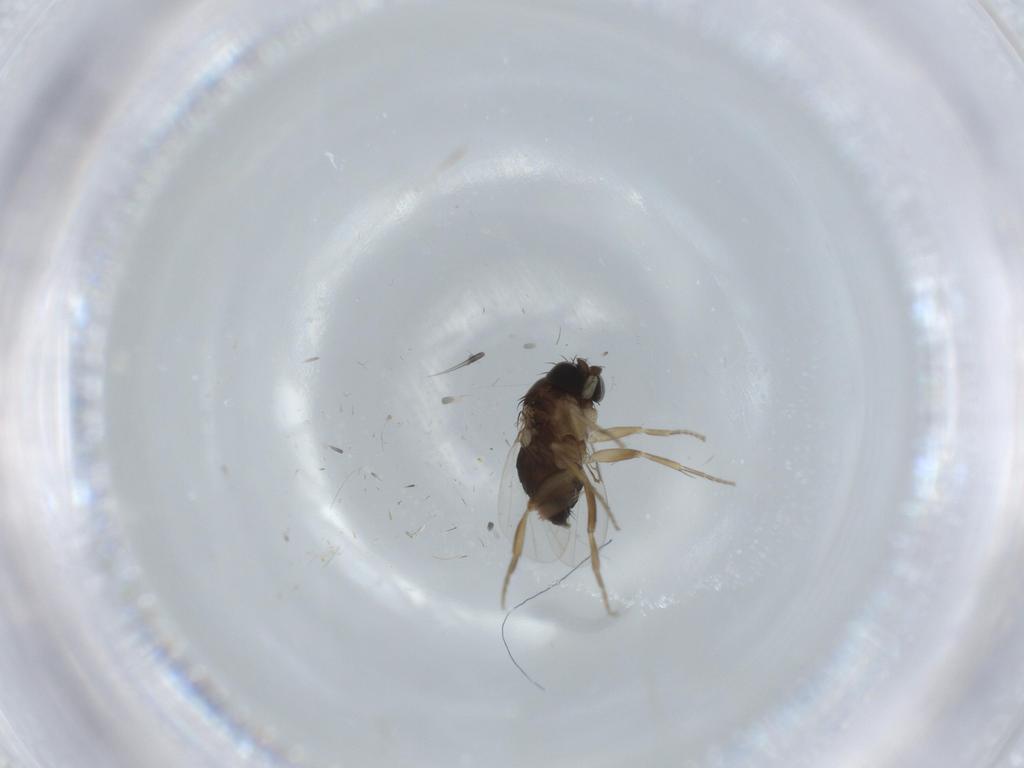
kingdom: Animalia
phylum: Arthropoda
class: Insecta
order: Diptera
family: Phoridae
